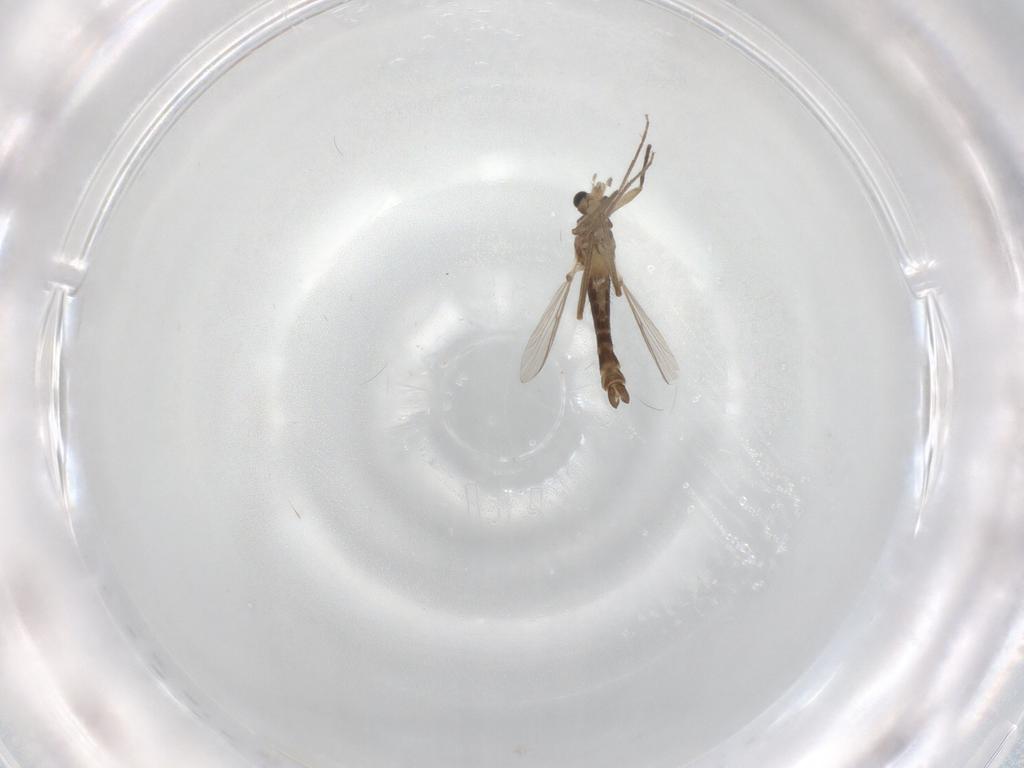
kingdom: Animalia
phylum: Arthropoda
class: Insecta
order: Diptera
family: Chironomidae
